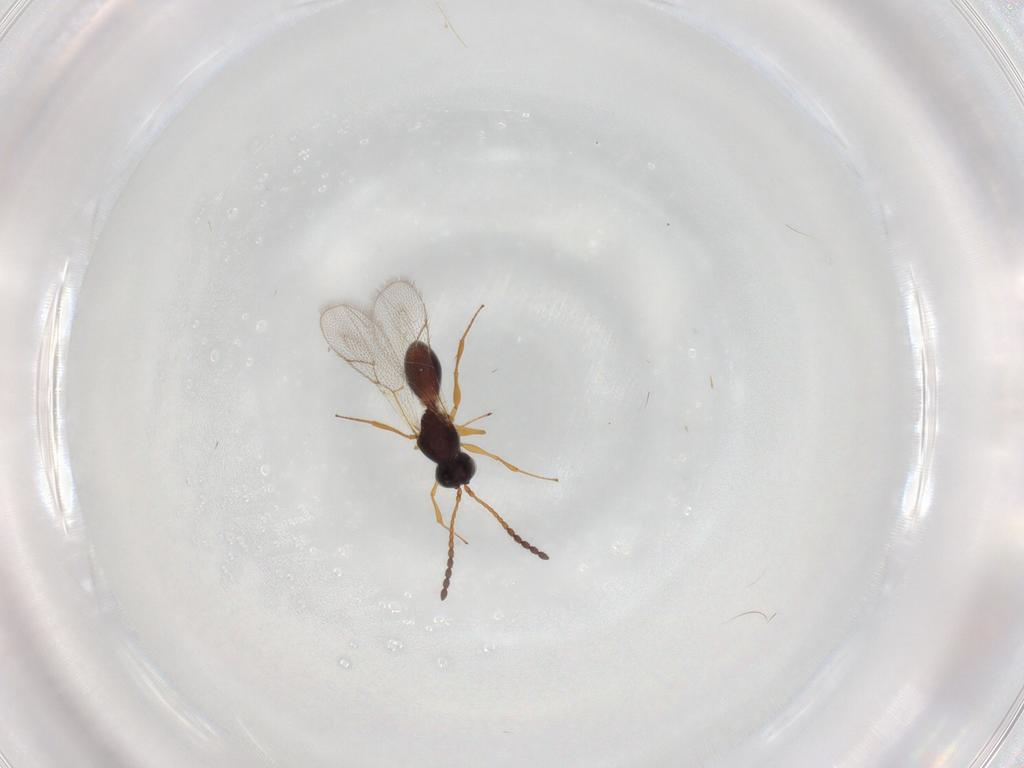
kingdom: Animalia
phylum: Arthropoda
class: Insecta
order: Hymenoptera
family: Figitidae
